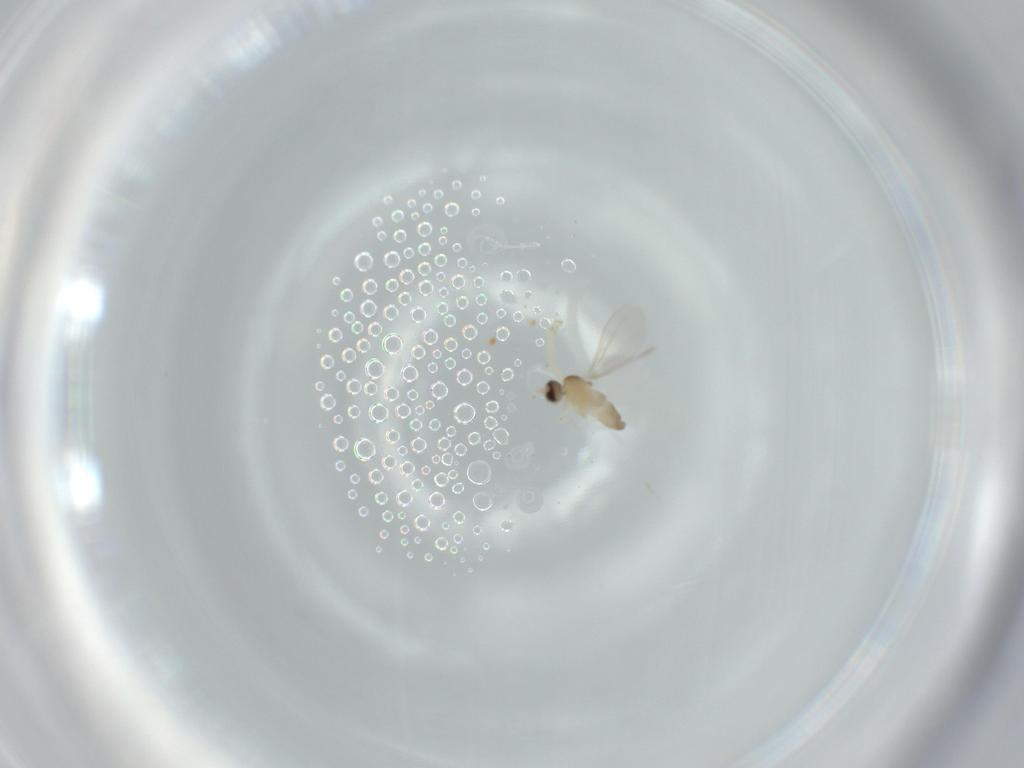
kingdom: Animalia
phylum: Arthropoda
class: Insecta
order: Diptera
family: Cecidomyiidae
